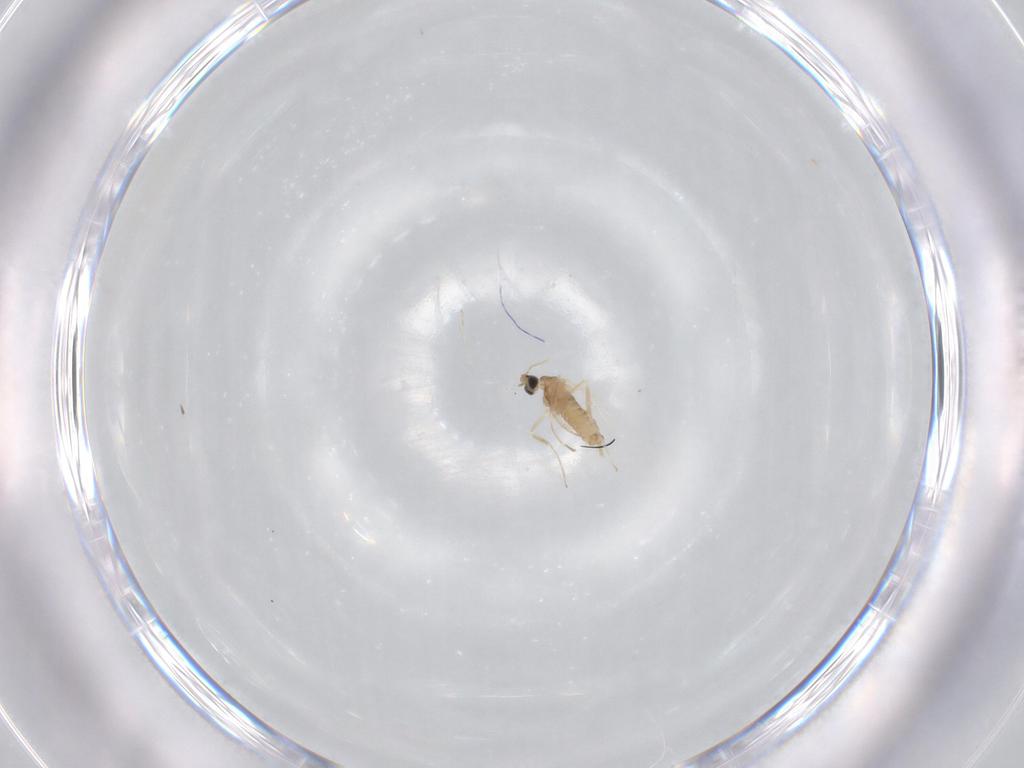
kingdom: Animalia
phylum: Arthropoda
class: Insecta
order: Diptera
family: Cecidomyiidae
